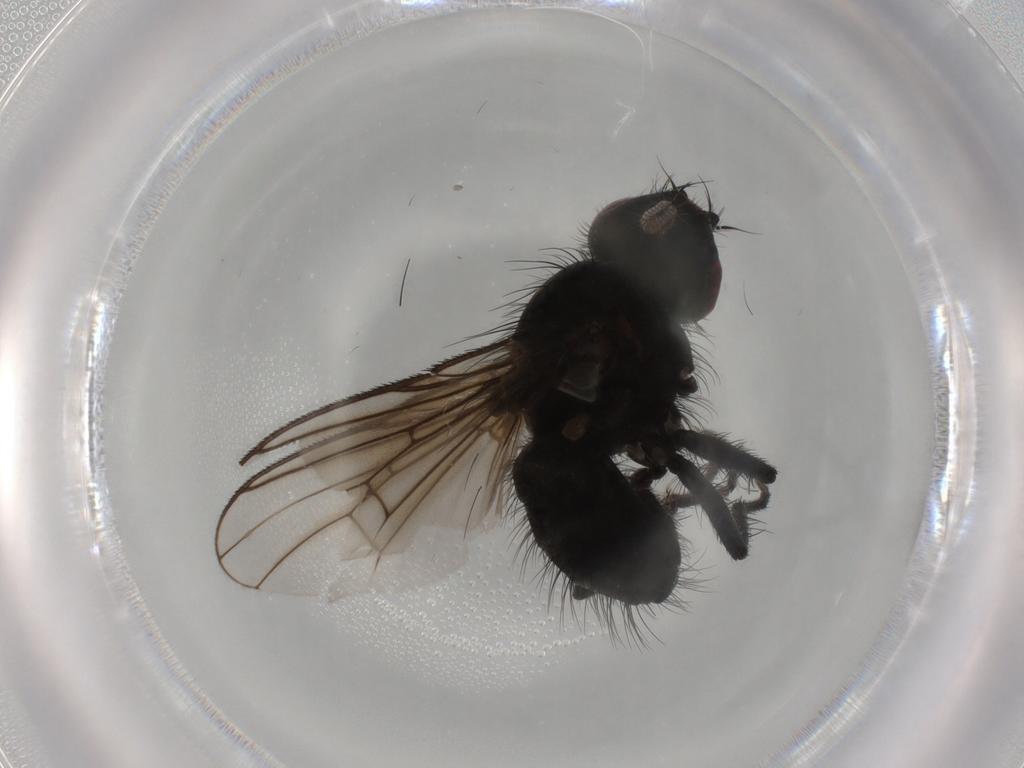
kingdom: Animalia
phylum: Arthropoda
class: Insecta
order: Diptera
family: Muscidae
